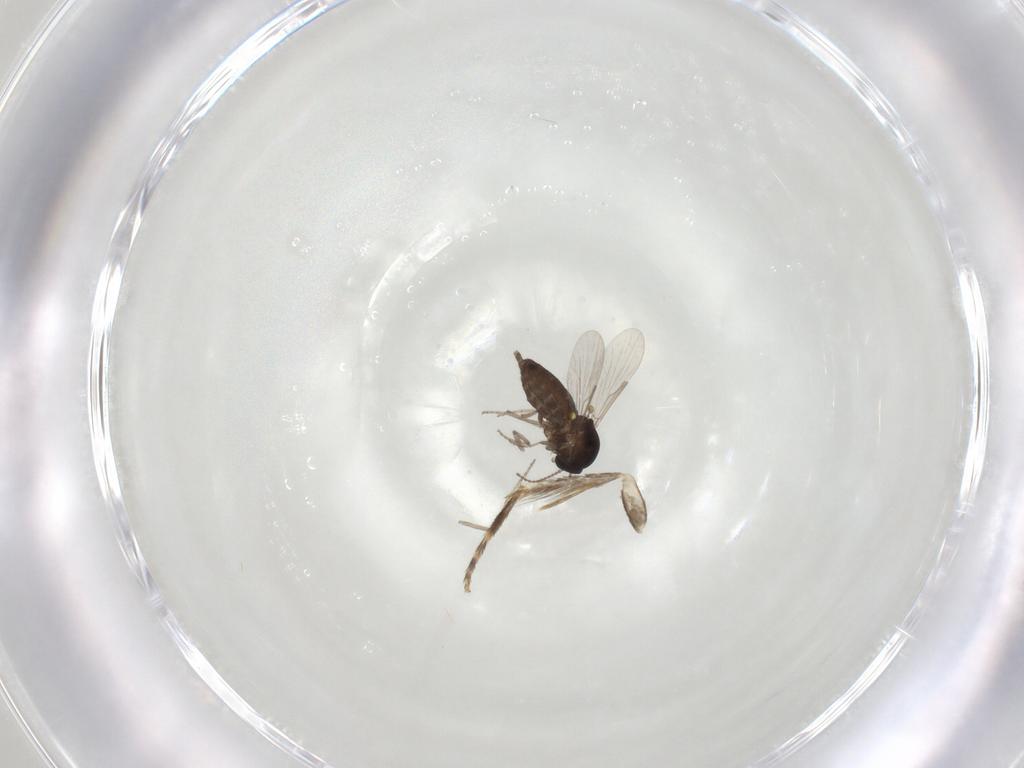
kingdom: Animalia
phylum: Arthropoda
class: Insecta
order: Diptera
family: Ceratopogonidae
